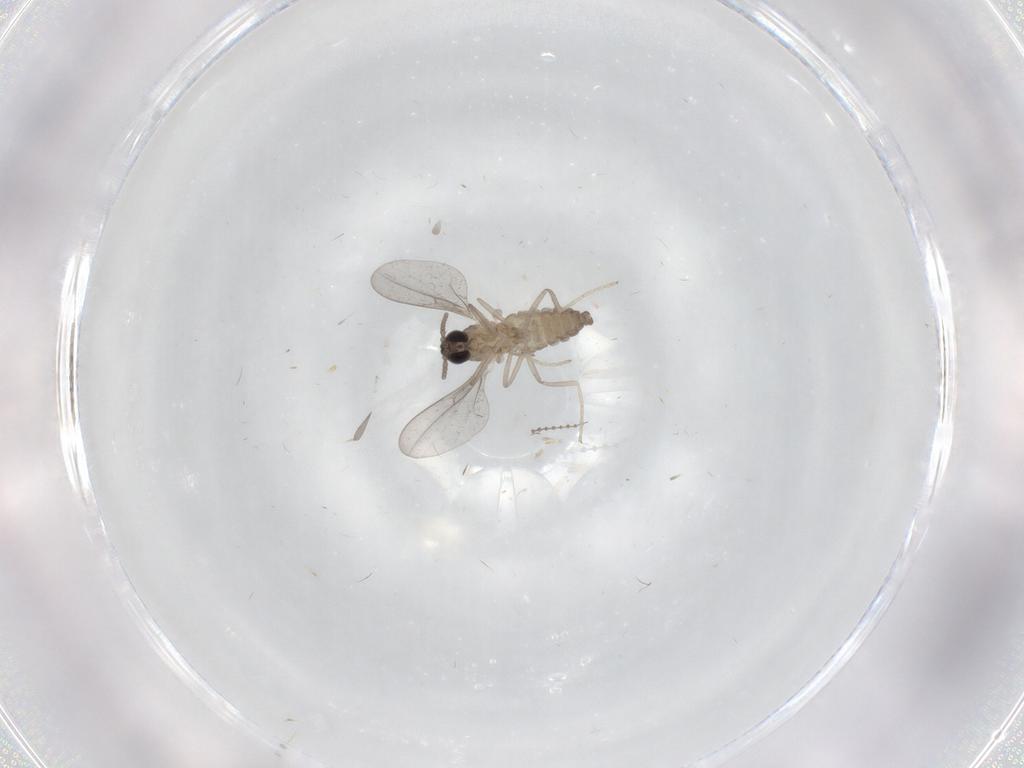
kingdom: Animalia
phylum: Arthropoda
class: Insecta
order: Diptera
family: Cecidomyiidae
